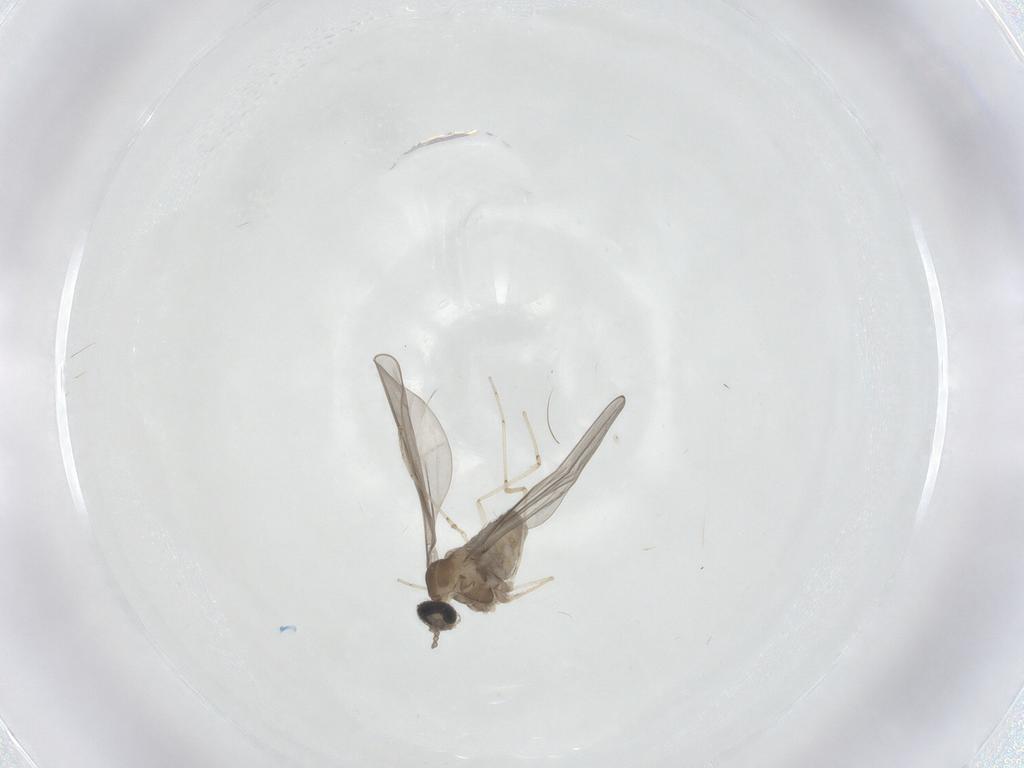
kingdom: Animalia
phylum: Arthropoda
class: Insecta
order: Diptera
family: Cecidomyiidae
